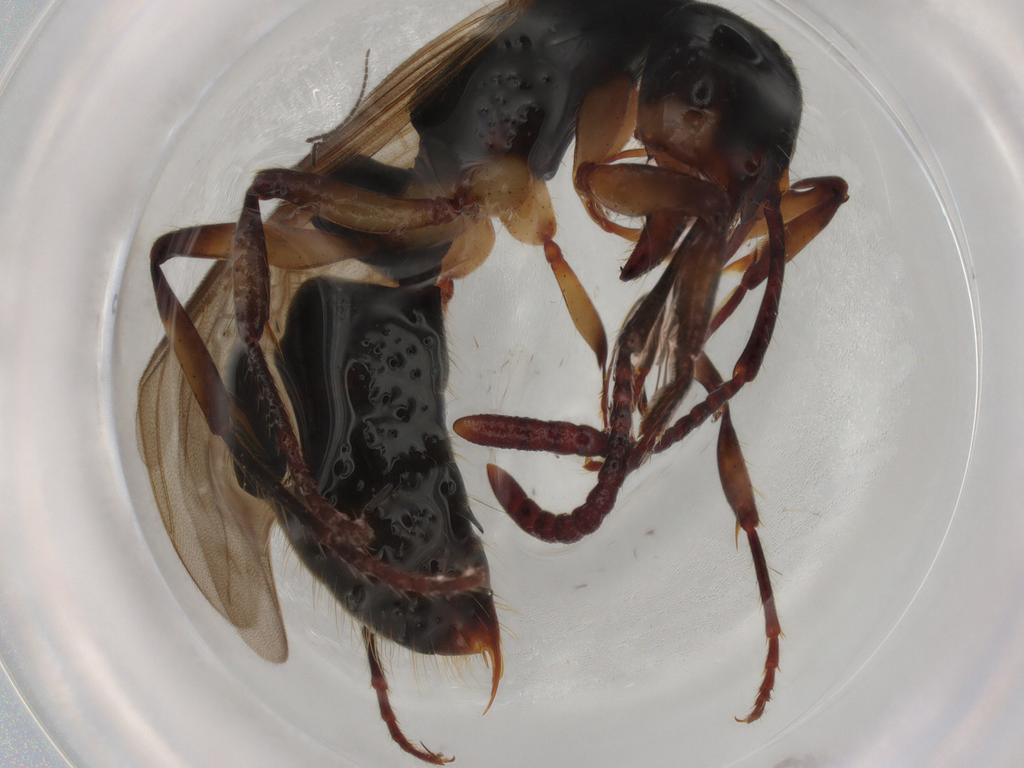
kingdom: Animalia
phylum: Arthropoda
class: Insecta
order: Hymenoptera
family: Formicidae
